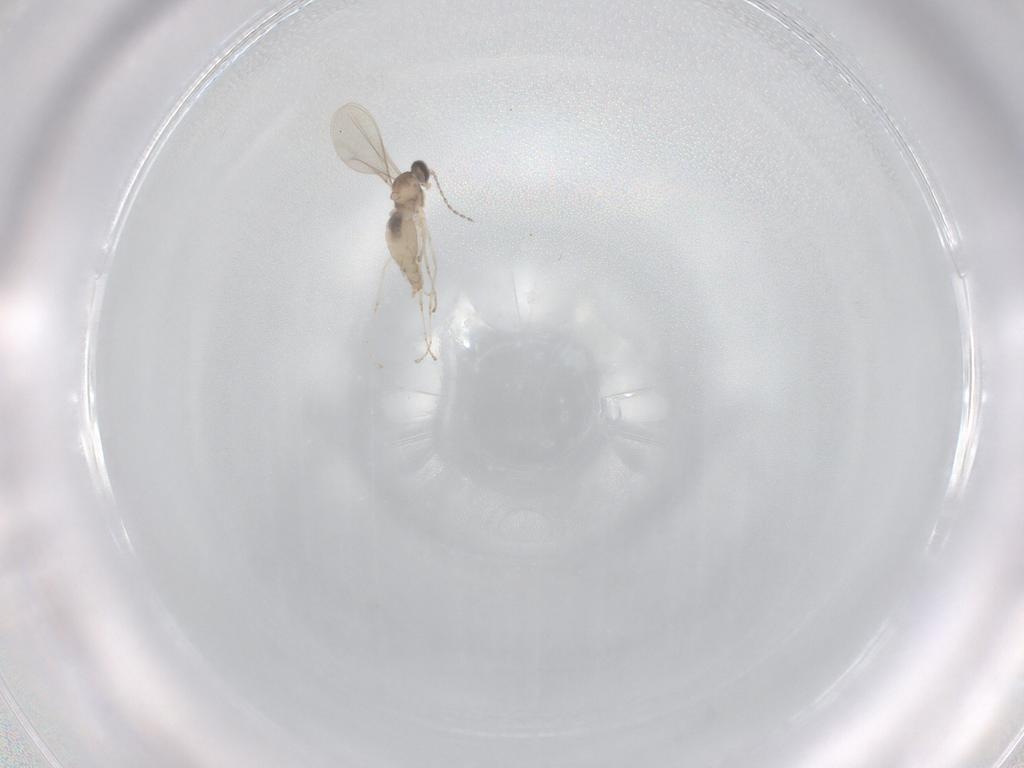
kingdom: Animalia
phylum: Arthropoda
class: Insecta
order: Diptera
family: Cecidomyiidae
